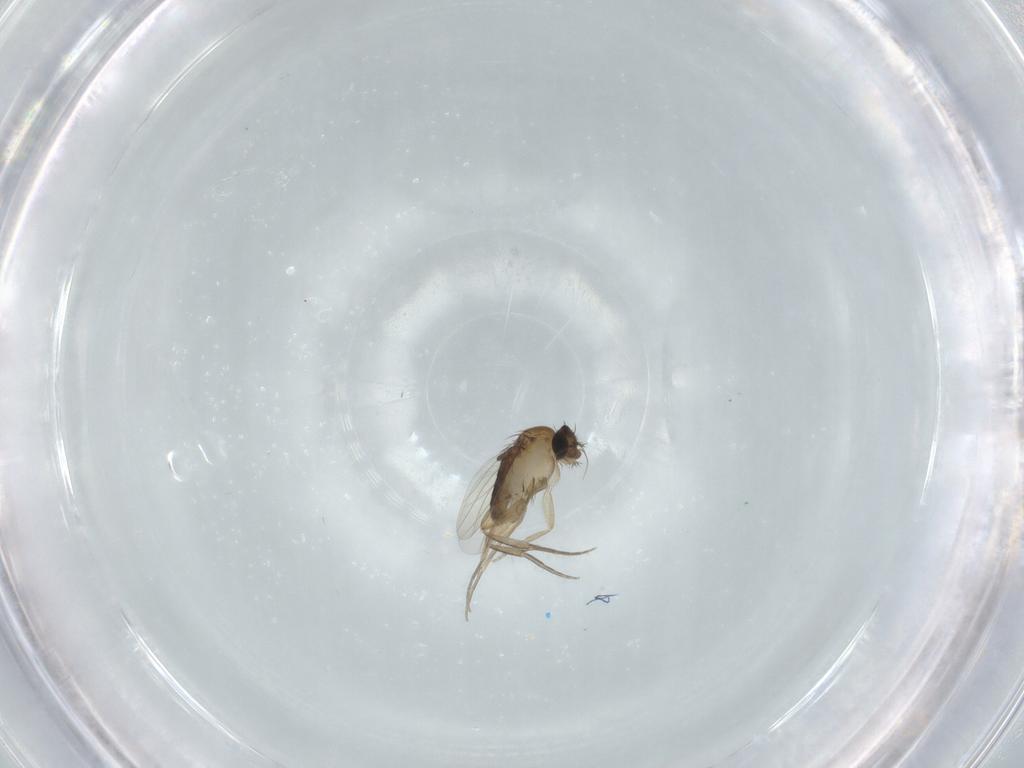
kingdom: Animalia
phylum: Arthropoda
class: Insecta
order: Diptera
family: Phoridae
